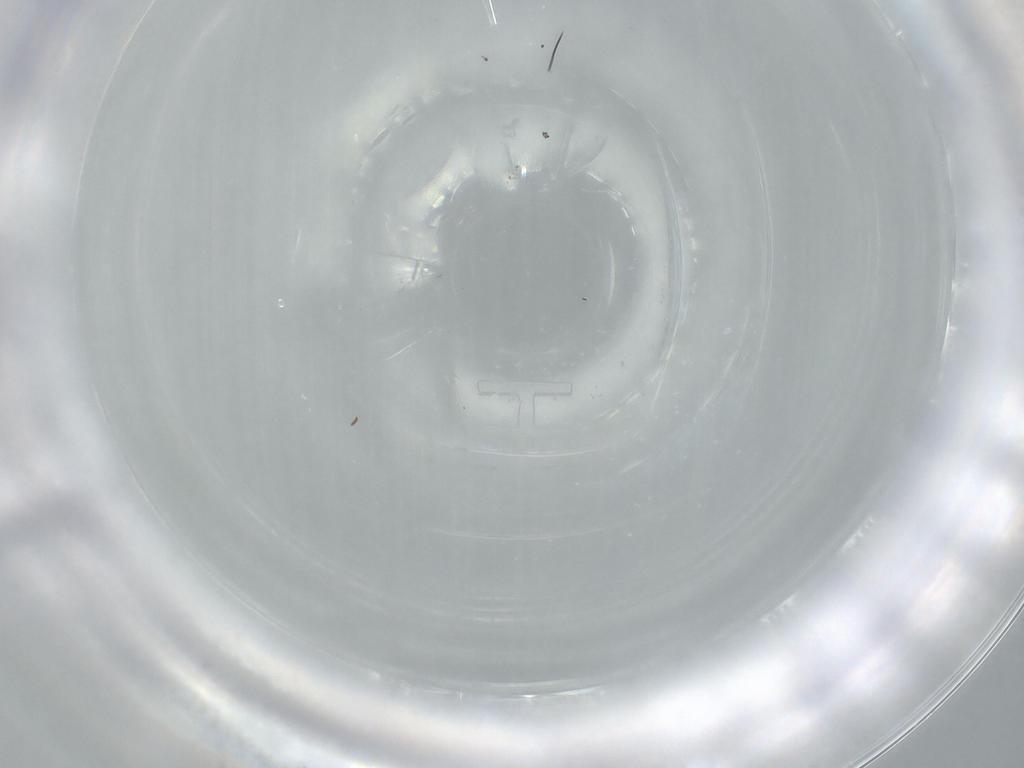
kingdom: Animalia
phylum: Arthropoda
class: Insecta
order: Diptera
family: Cecidomyiidae
